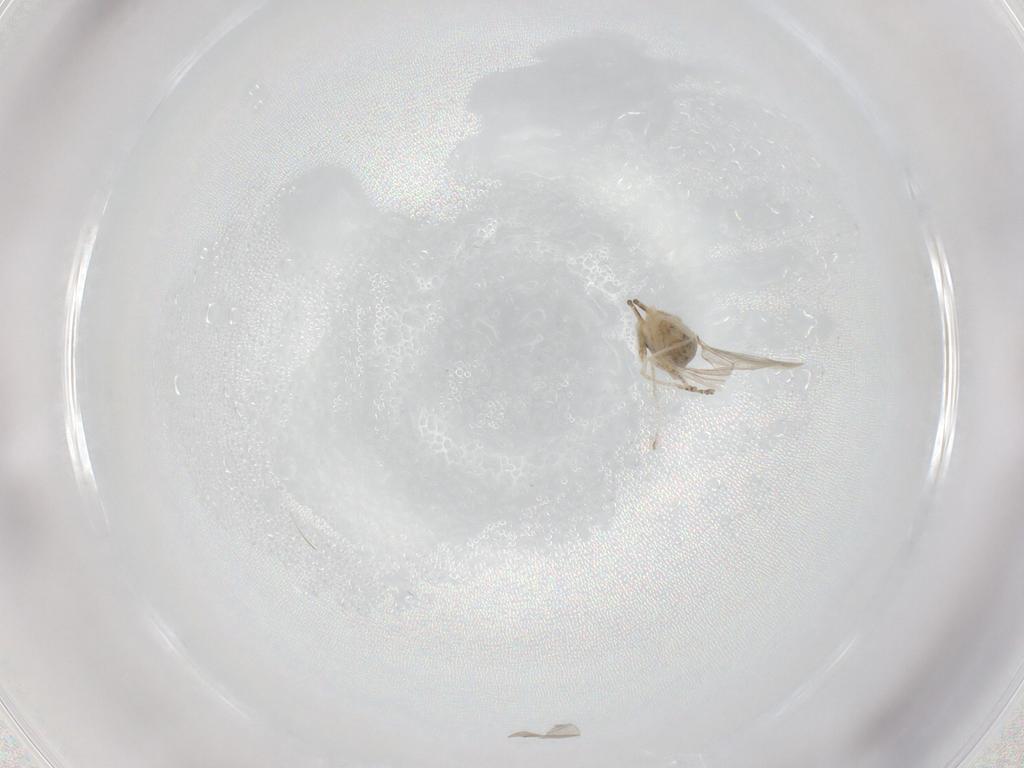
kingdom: Animalia
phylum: Arthropoda
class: Insecta
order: Diptera
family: Cecidomyiidae
